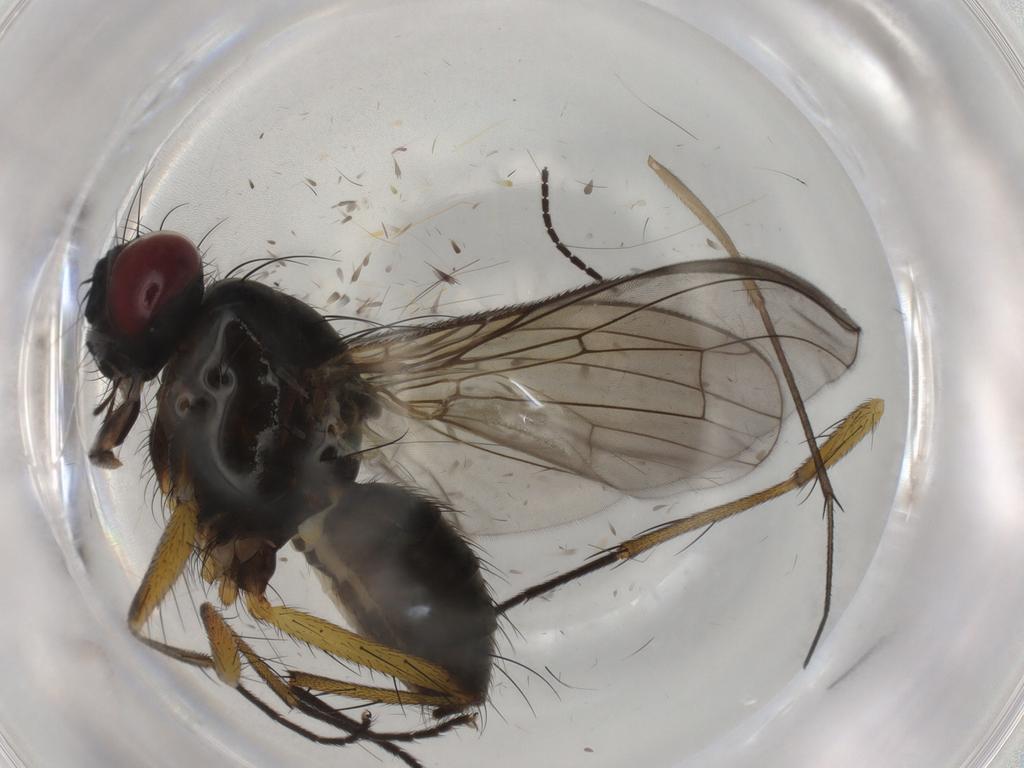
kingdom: Animalia
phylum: Arthropoda
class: Insecta
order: Diptera
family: Muscidae
